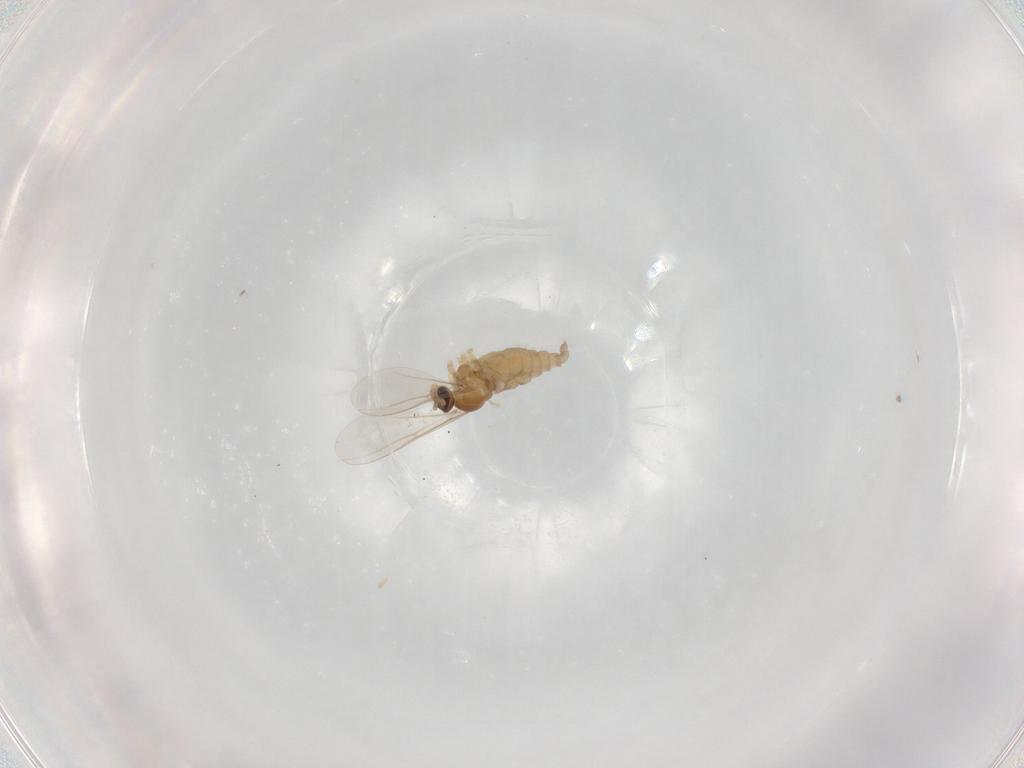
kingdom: Animalia
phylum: Arthropoda
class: Insecta
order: Diptera
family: Cecidomyiidae
